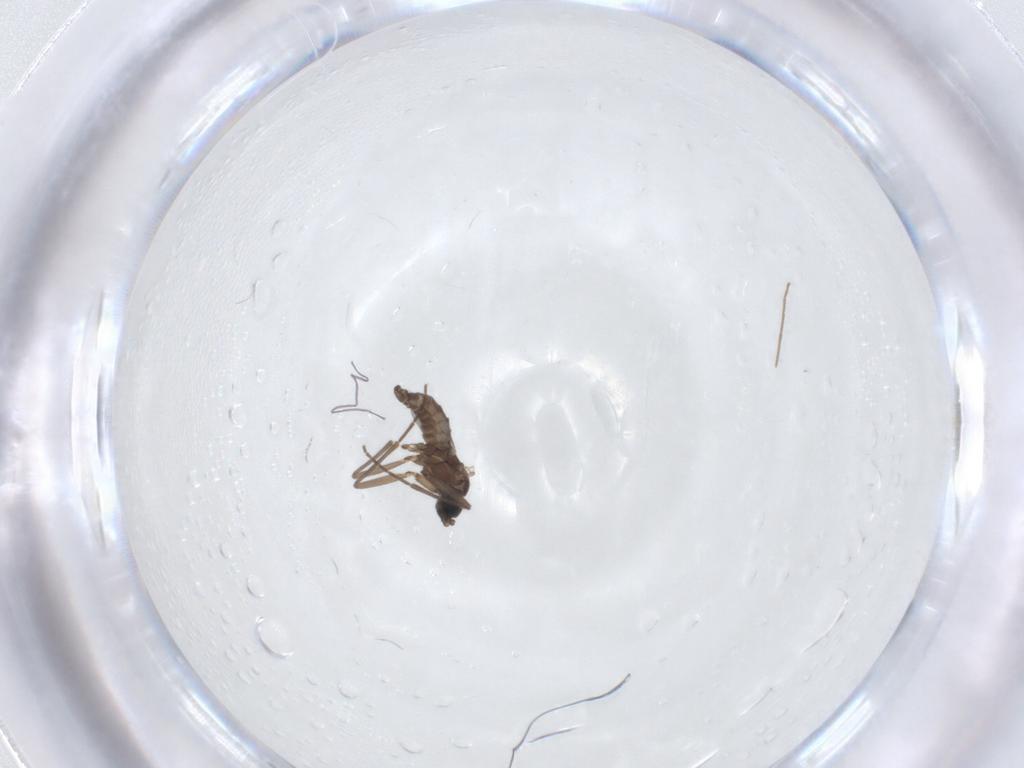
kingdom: Animalia
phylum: Arthropoda
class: Insecta
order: Diptera
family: Sciaridae
